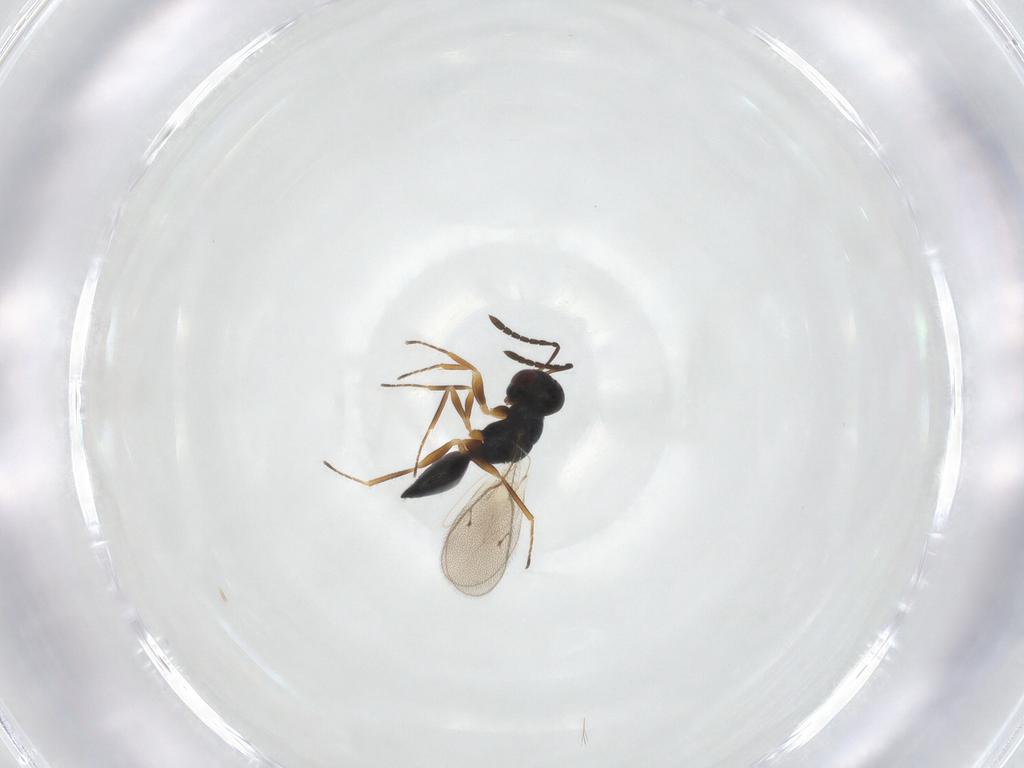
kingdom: Animalia
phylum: Arthropoda
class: Insecta
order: Hymenoptera
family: Pteromalidae
